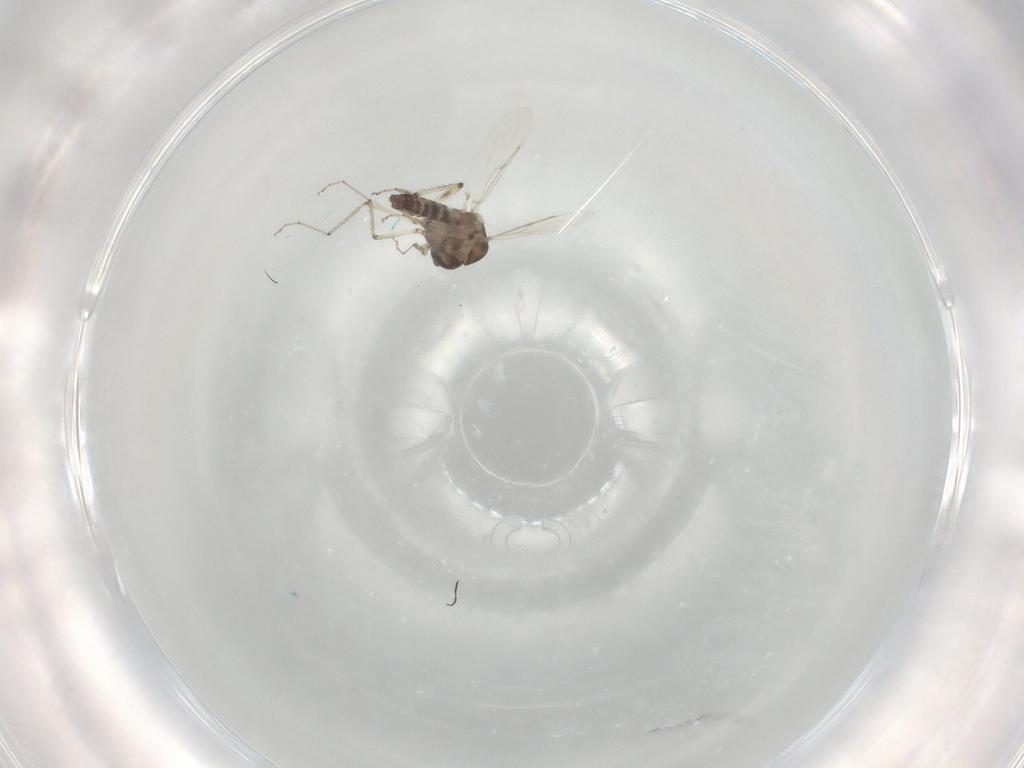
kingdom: Animalia
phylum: Arthropoda
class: Insecta
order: Diptera
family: Ceratopogonidae
